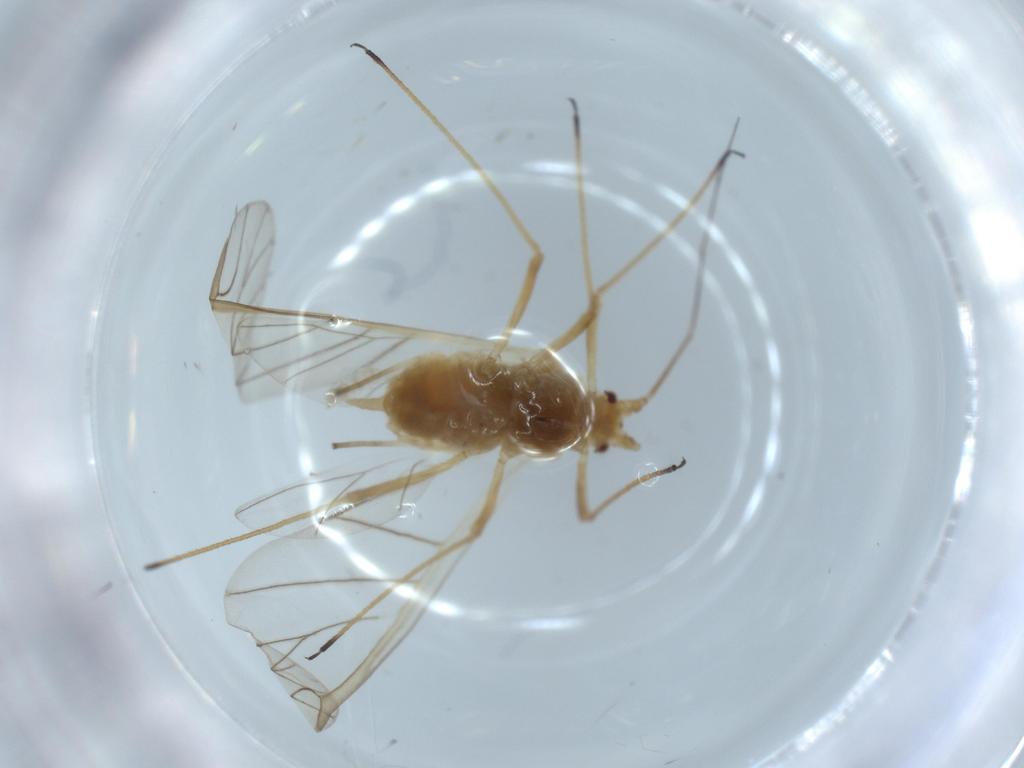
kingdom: Animalia
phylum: Arthropoda
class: Insecta
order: Hemiptera
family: Aphididae
